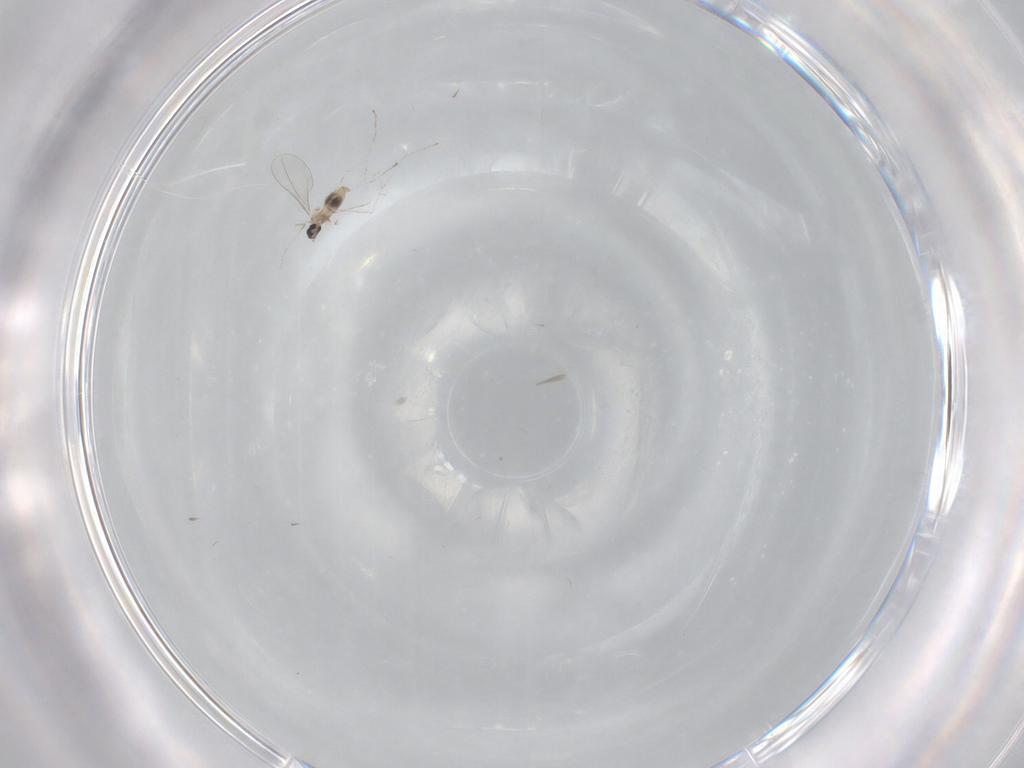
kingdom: Animalia
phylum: Arthropoda
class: Insecta
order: Diptera
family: Cecidomyiidae
